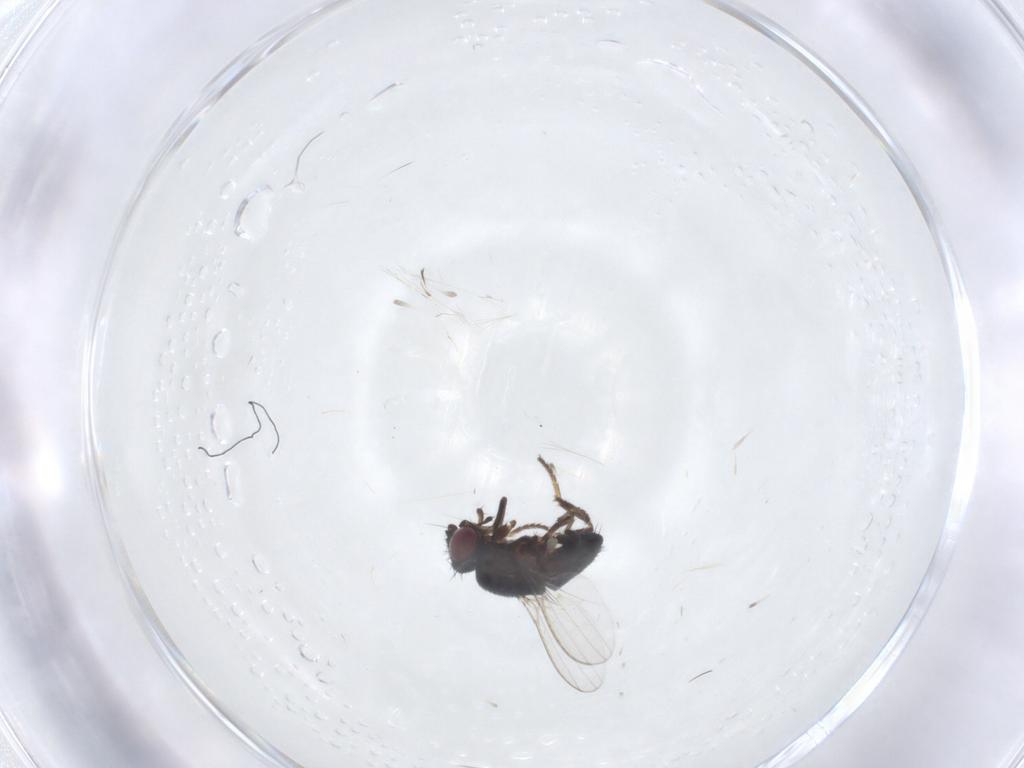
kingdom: Animalia
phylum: Arthropoda
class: Insecta
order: Diptera
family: Milichiidae
